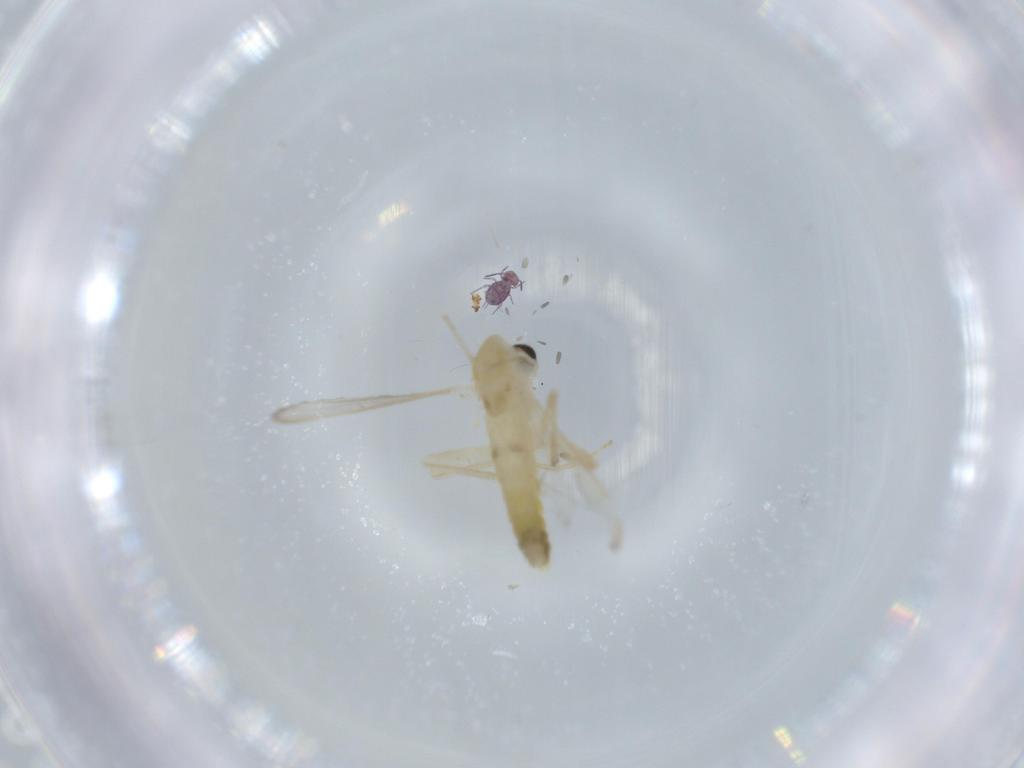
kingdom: Animalia
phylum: Arthropoda
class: Insecta
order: Diptera
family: Chironomidae
